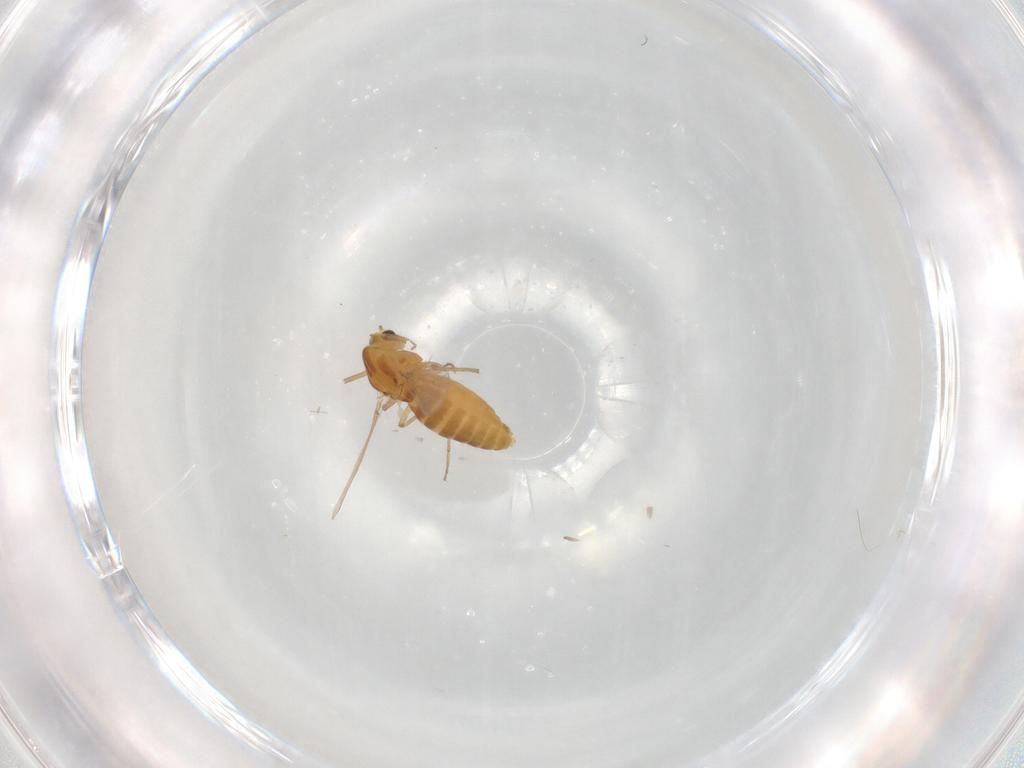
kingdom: Animalia
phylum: Arthropoda
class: Insecta
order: Diptera
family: Chironomidae
